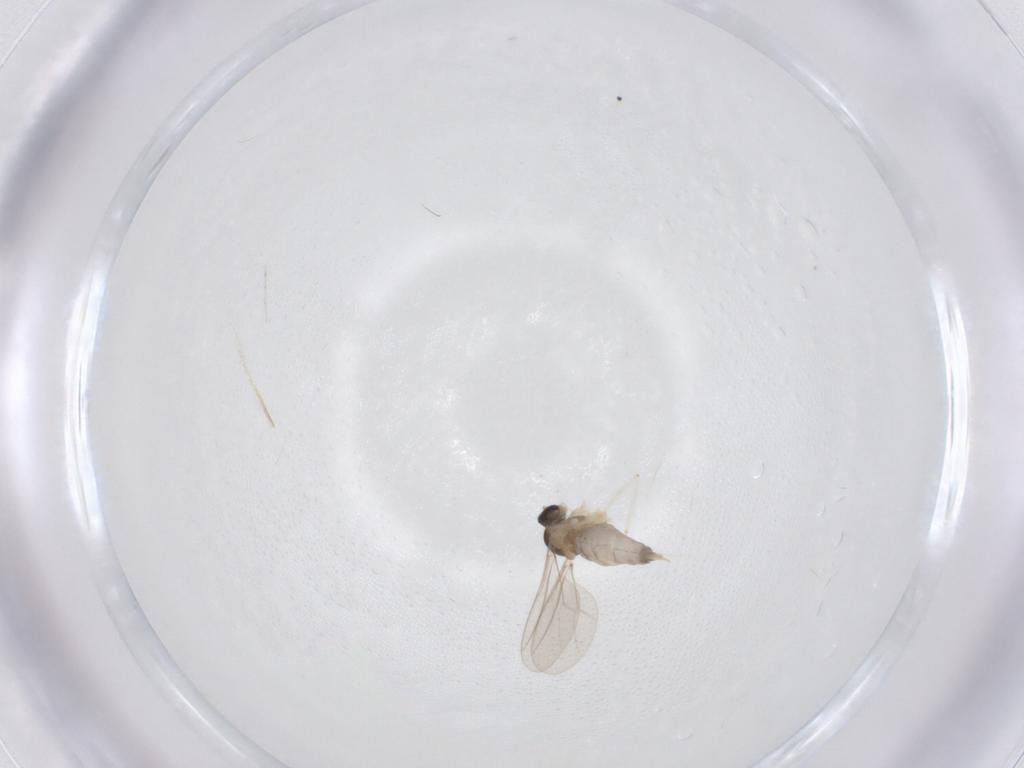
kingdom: Animalia
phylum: Arthropoda
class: Insecta
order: Diptera
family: Cecidomyiidae
